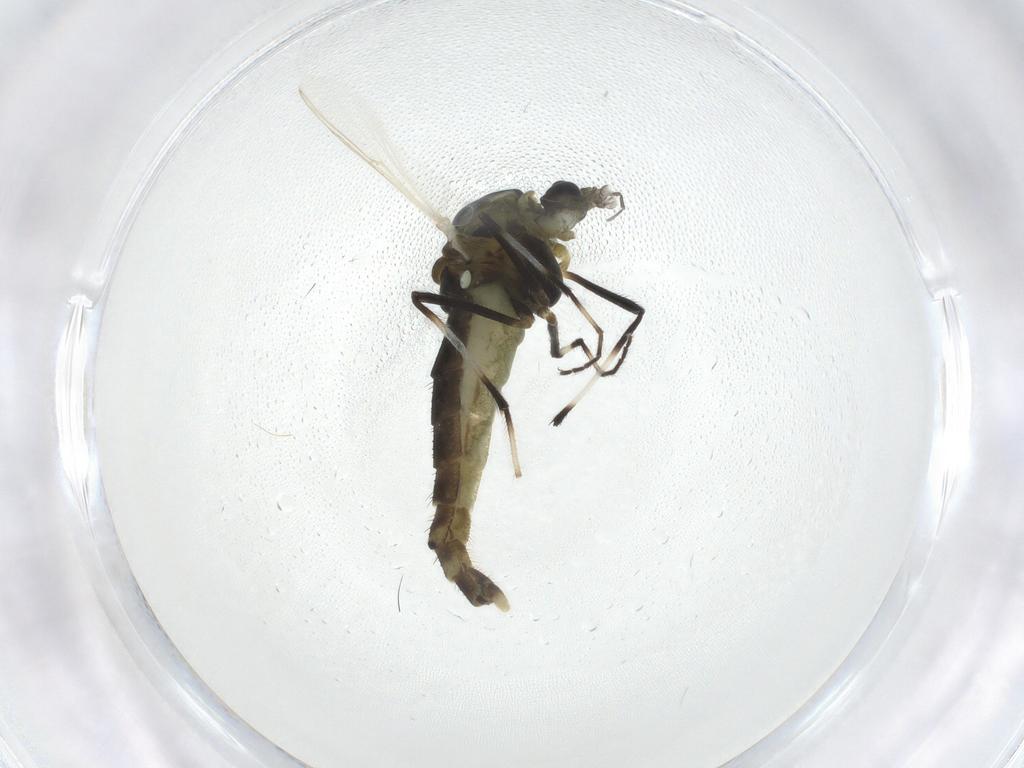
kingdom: Animalia
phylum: Arthropoda
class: Insecta
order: Diptera
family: Chironomidae
